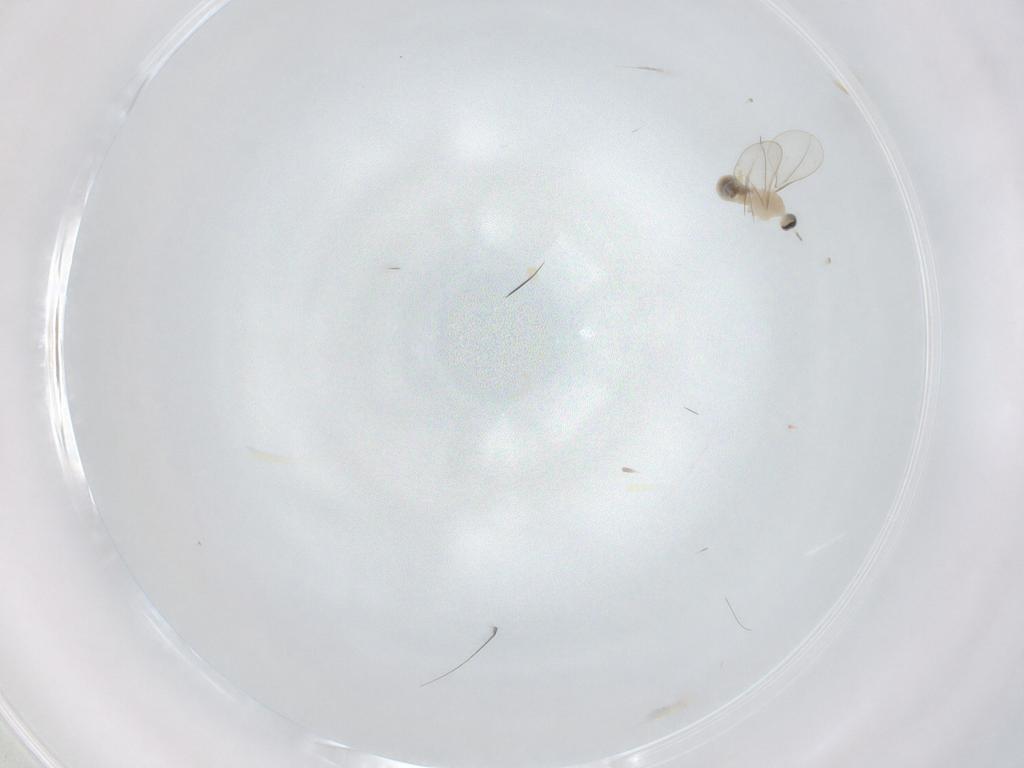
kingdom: Animalia
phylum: Arthropoda
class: Insecta
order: Diptera
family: Cecidomyiidae
